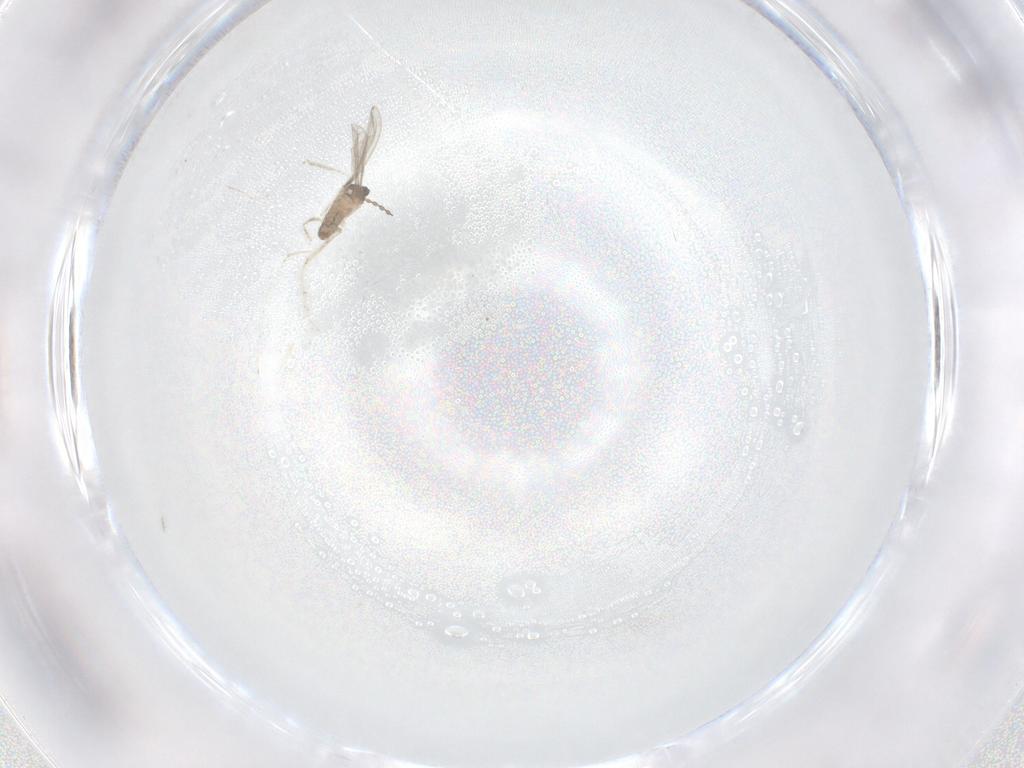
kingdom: Animalia
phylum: Arthropoda
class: Insecta
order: Diptera
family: Cecidomyiidae
